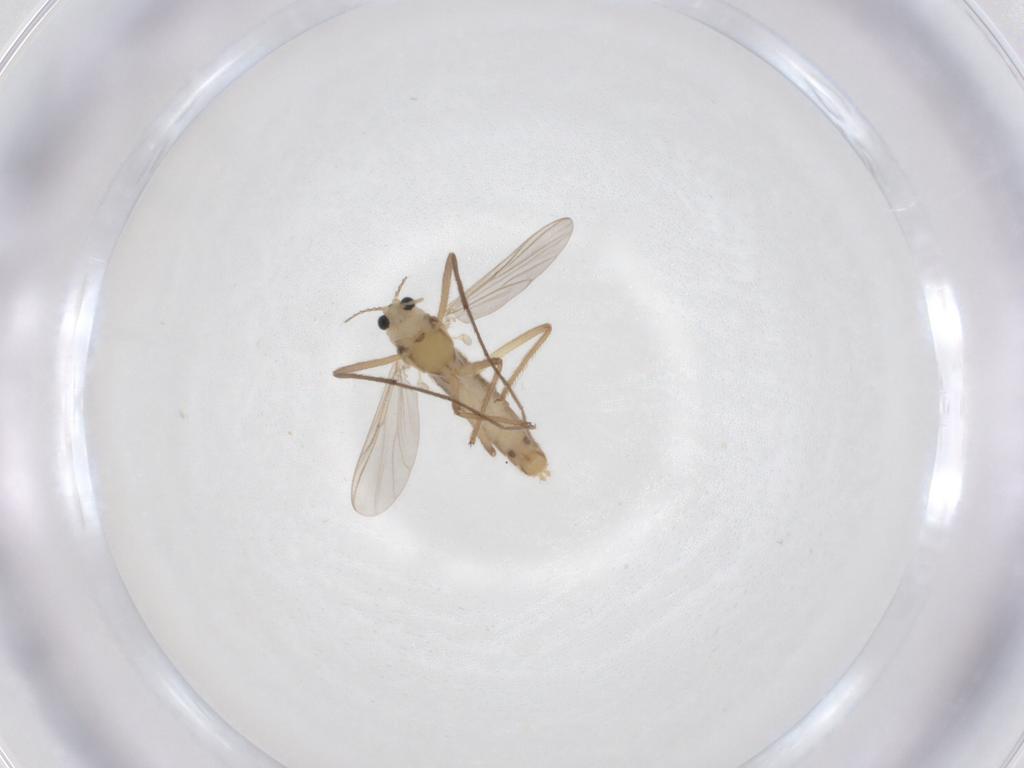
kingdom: Animalia
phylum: Arthropoda
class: Insecta
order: Diptera
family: Chironomidae
